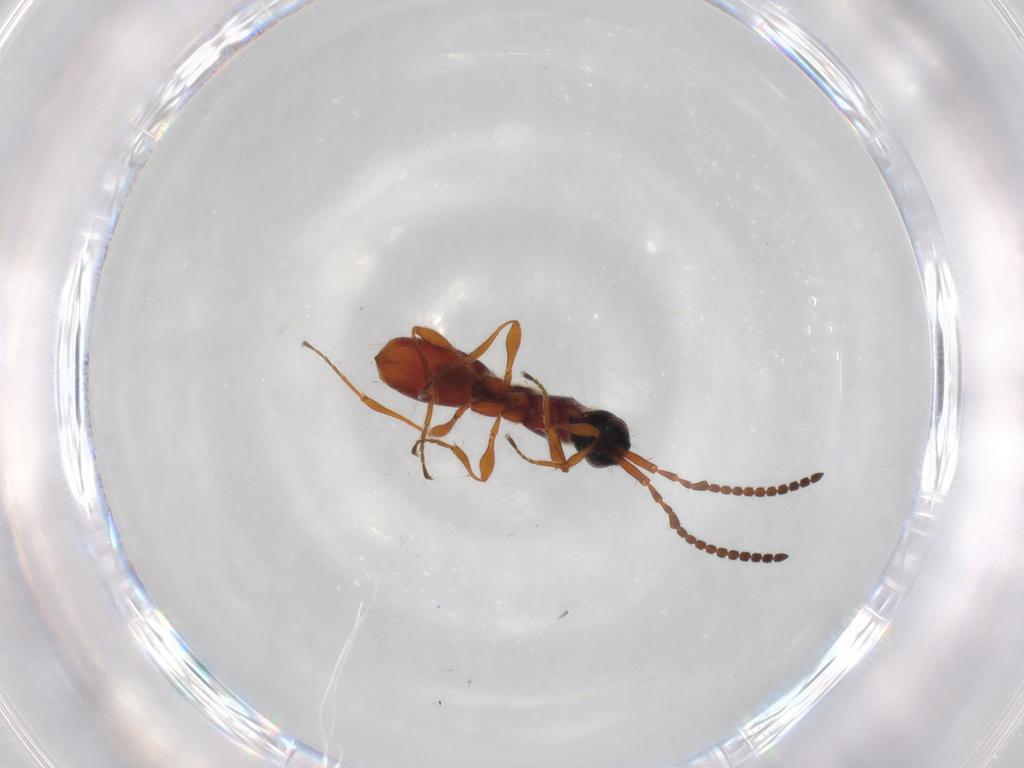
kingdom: Animalia
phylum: Arthropoda
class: Insecta
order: Hymenoptera
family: Diapriidae
